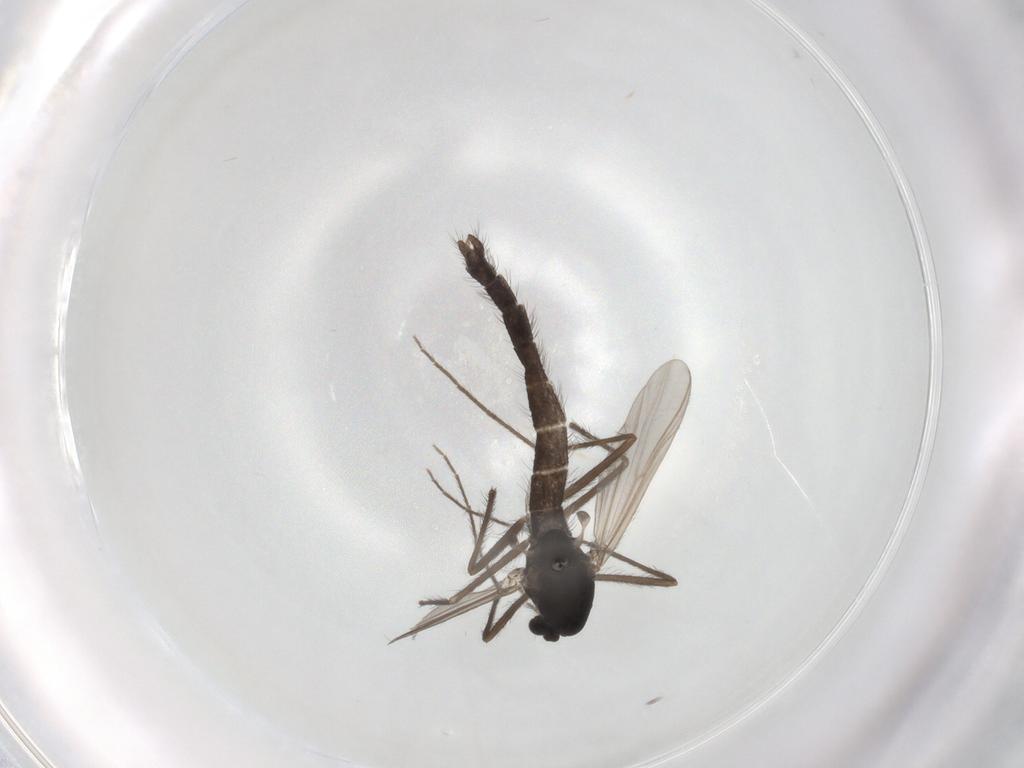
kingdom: Animalia
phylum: Arthropoda
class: Insecta
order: Diptera
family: Chironomidae
